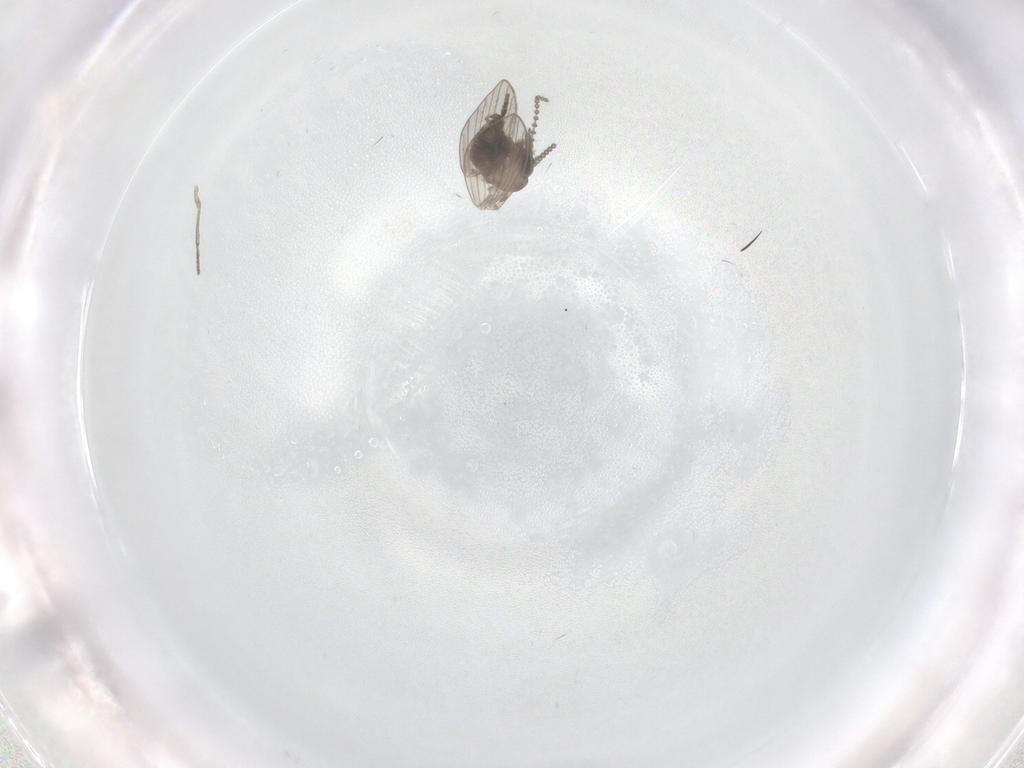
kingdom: Animalia
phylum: Arthropoda
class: Insecta
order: Diptera
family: Psychodidae
